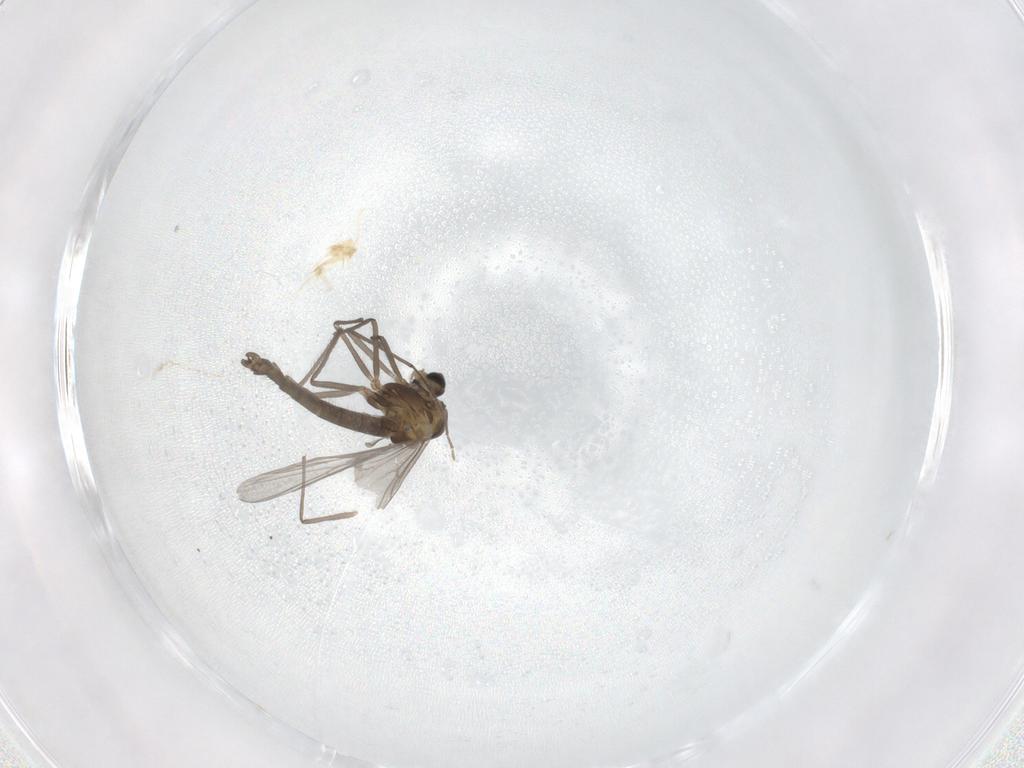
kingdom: Animalia
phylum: Arthropoda
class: Insecta
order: Diptera
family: Chironomidae
